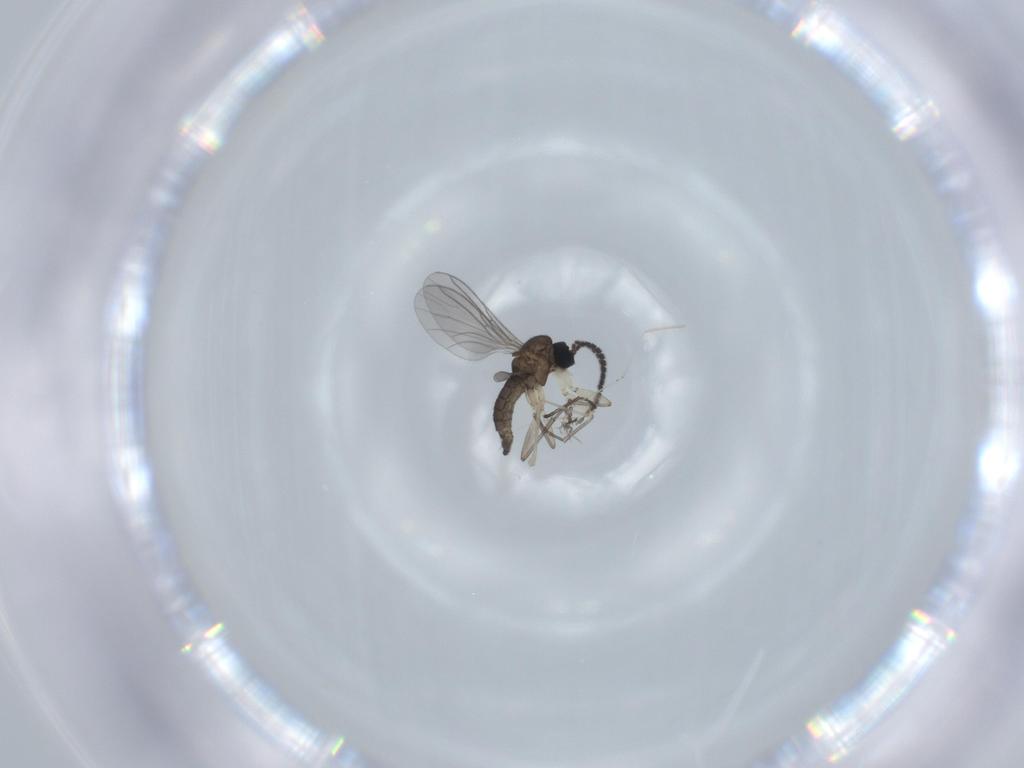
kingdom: Animalia
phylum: Arthropoda
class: Insecta
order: Diptera
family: Sciaridae
